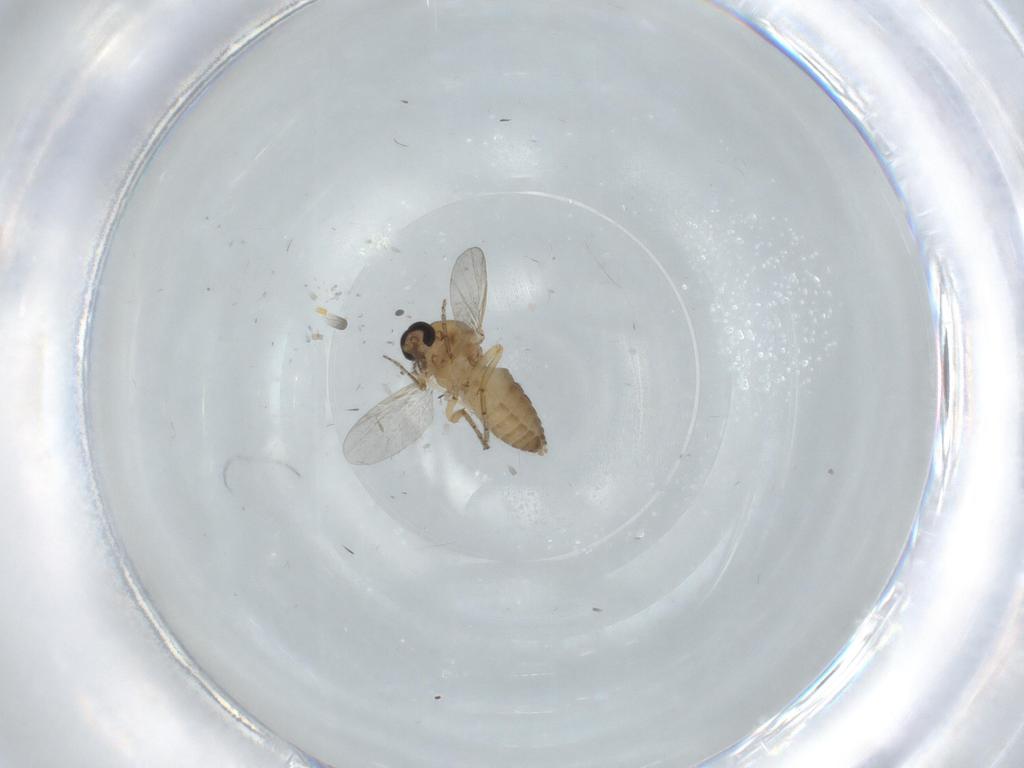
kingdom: Animalia
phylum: Arthropoda
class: Insecta
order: Diptera
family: Ceratopogonidae
